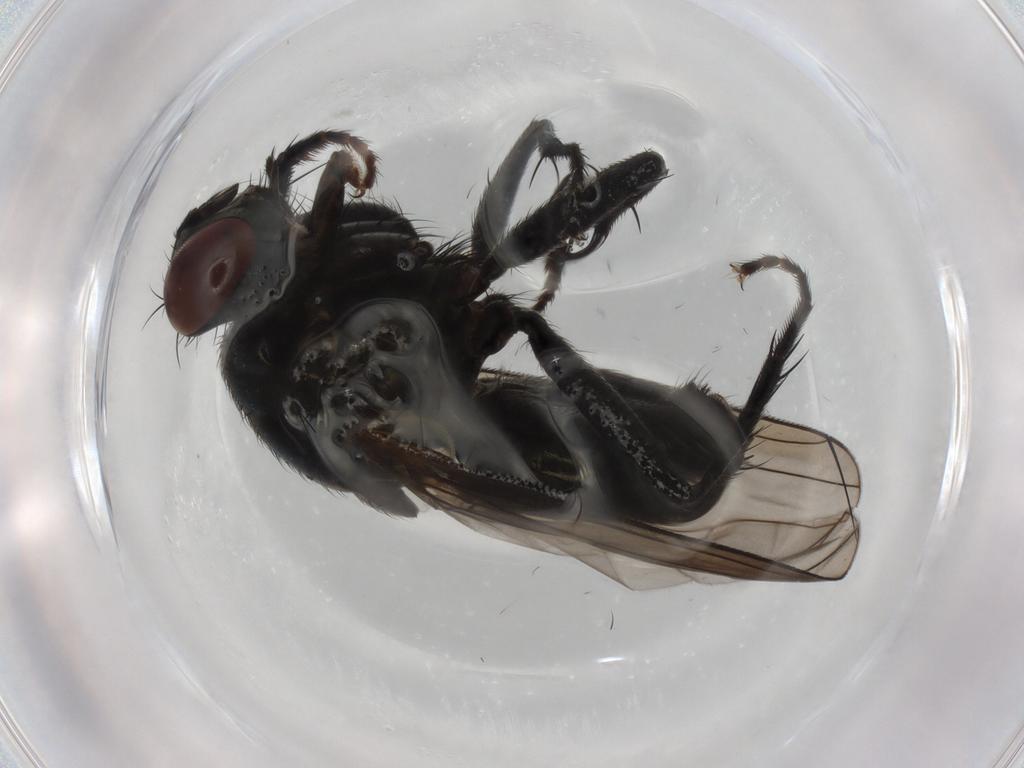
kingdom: Animalia
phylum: Arthropoda
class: Insecta
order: Diptera
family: Muscidae
